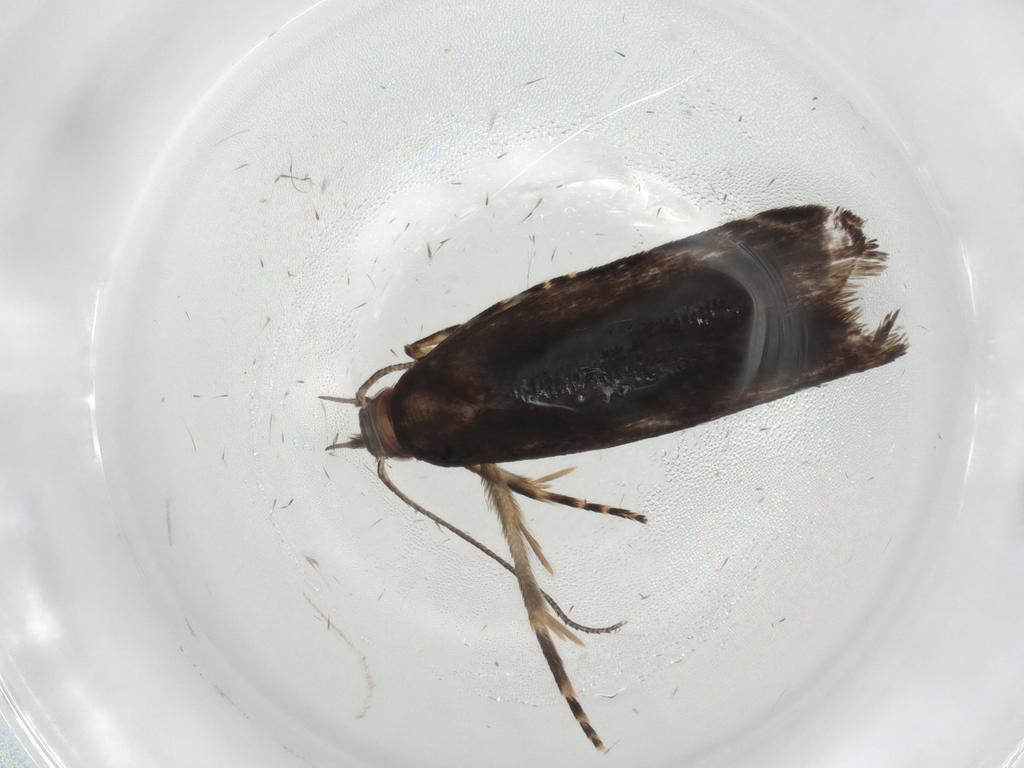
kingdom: Animalia
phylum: Arthropoda
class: Insecta
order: Lepidoptera
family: Gelechiidae
